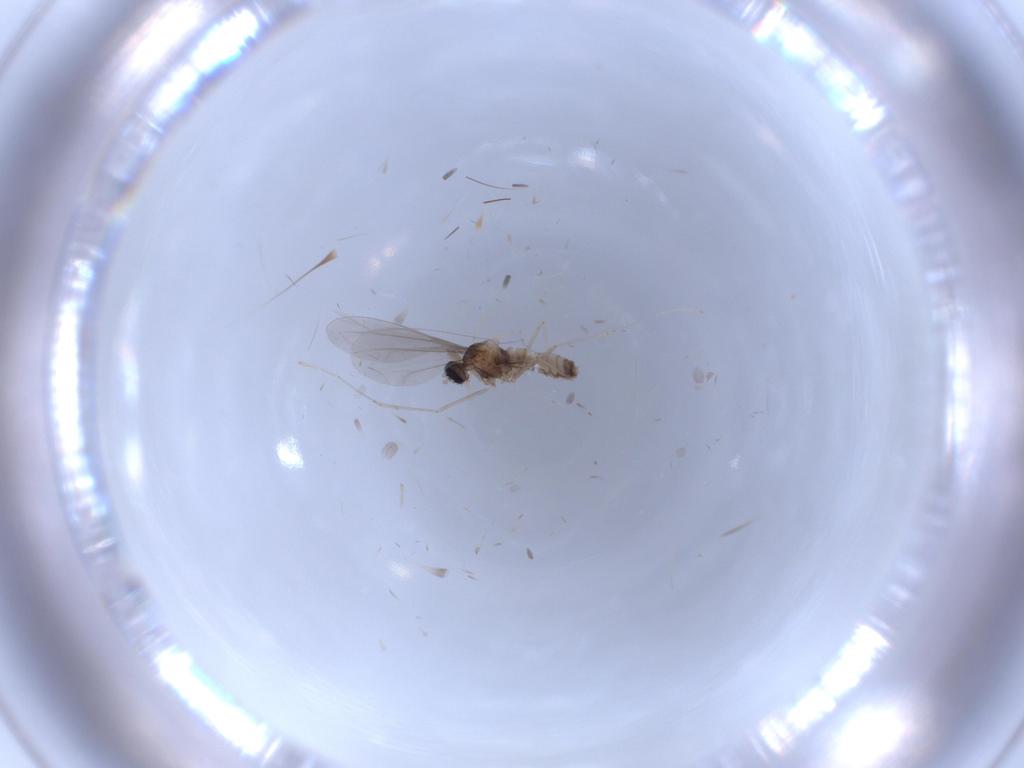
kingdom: Animalia
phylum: Arthropoda
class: Insecta
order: Diptera
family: Cecidomyiidae
